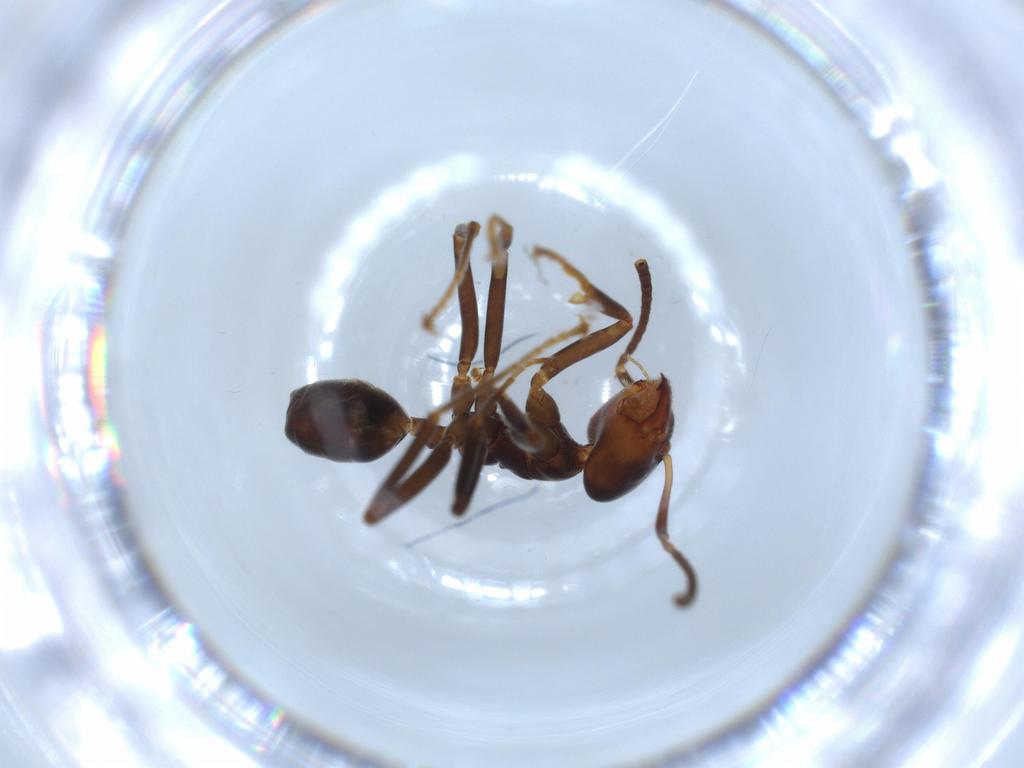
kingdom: Animalia
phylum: Arthropoda
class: Insecta
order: Hymenoptera
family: Formicidae
